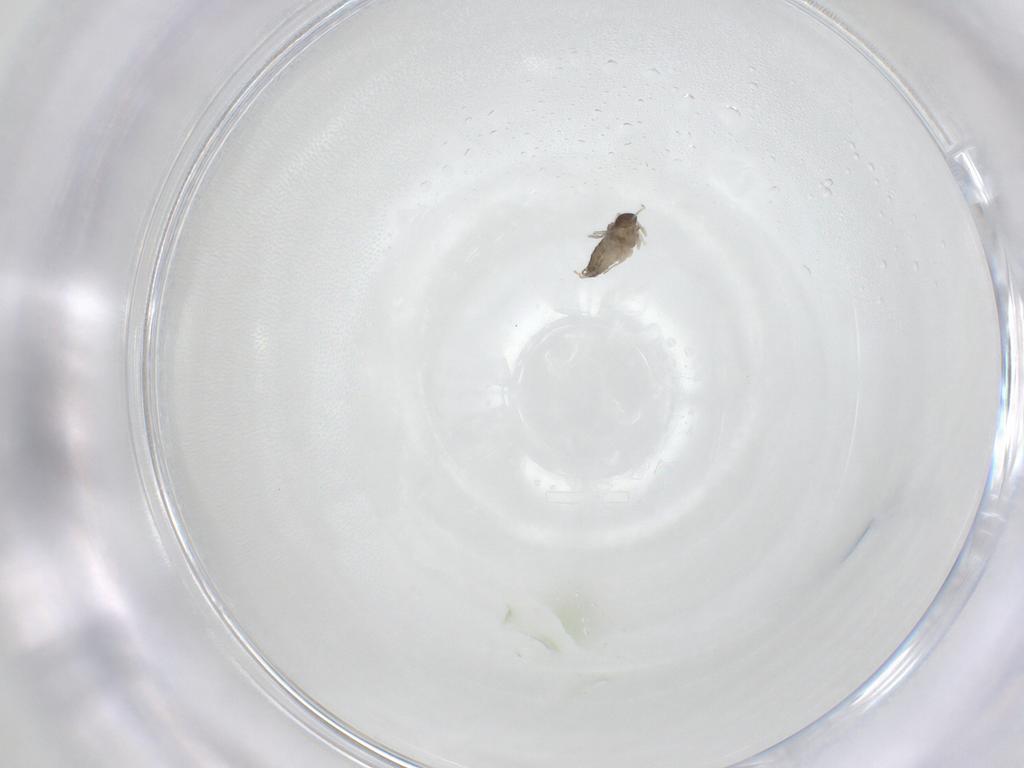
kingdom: Animalia
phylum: Arthropoda
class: Insecta
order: Diptera
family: Cecidomyiidae
